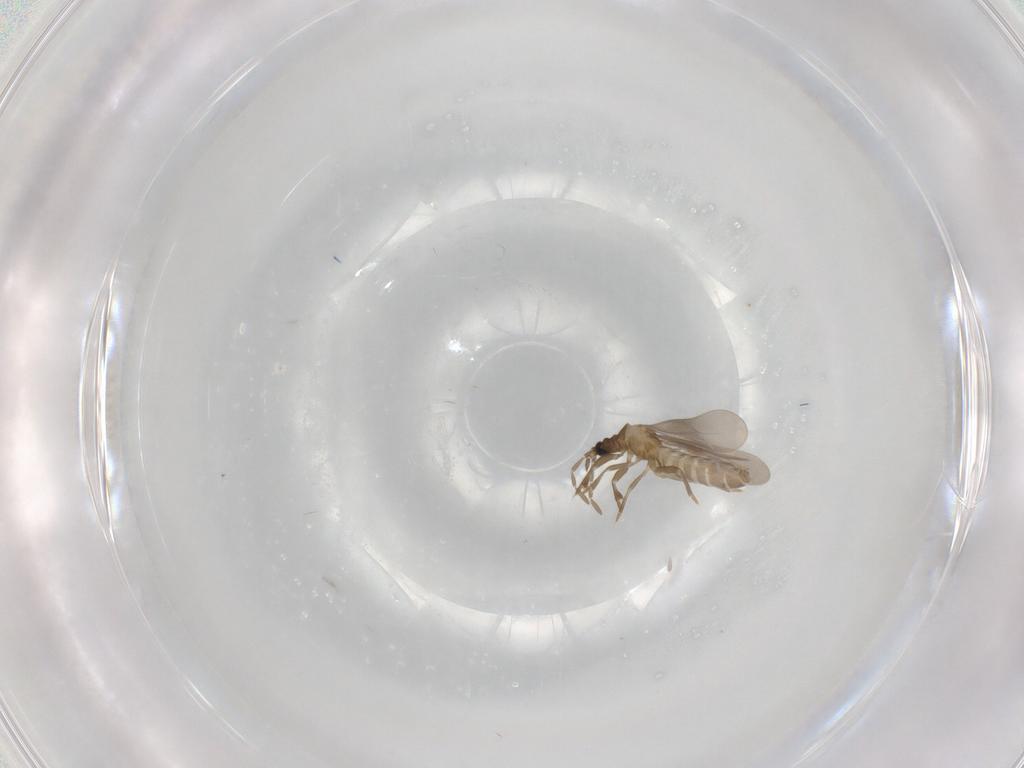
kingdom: Animalia
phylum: Arthropoda
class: Insecta
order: Hemiptera
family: Enicocephalidae
